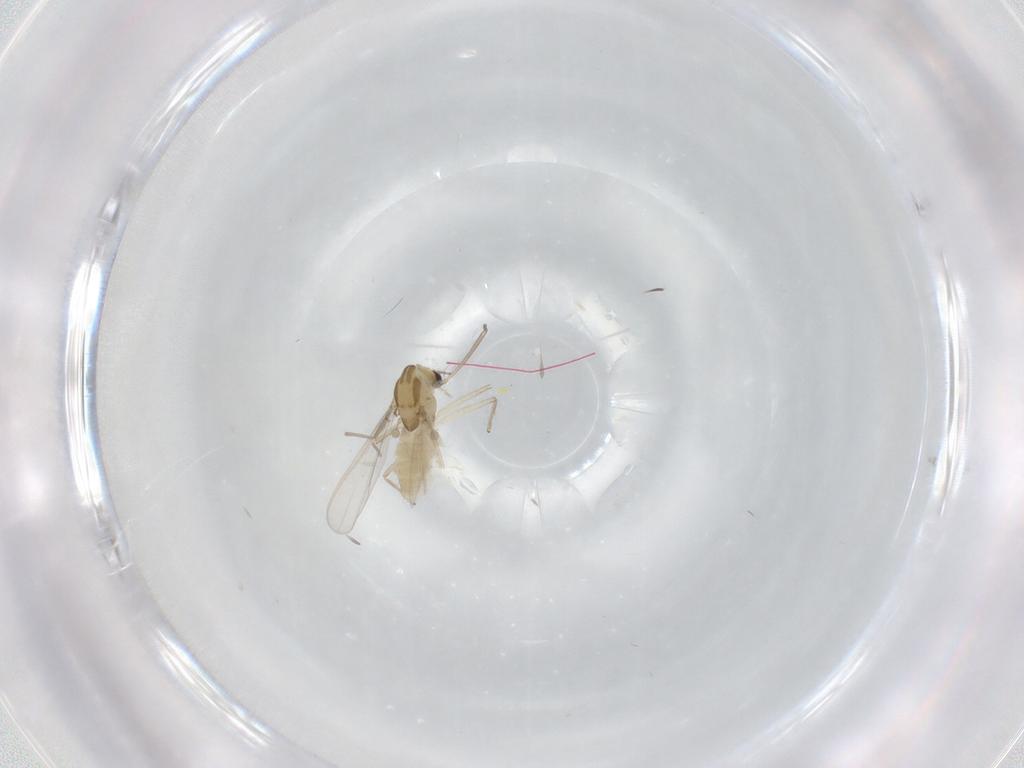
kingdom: Animalia
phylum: Arthropoda
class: Insecta
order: Diptera
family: Chironomidae
